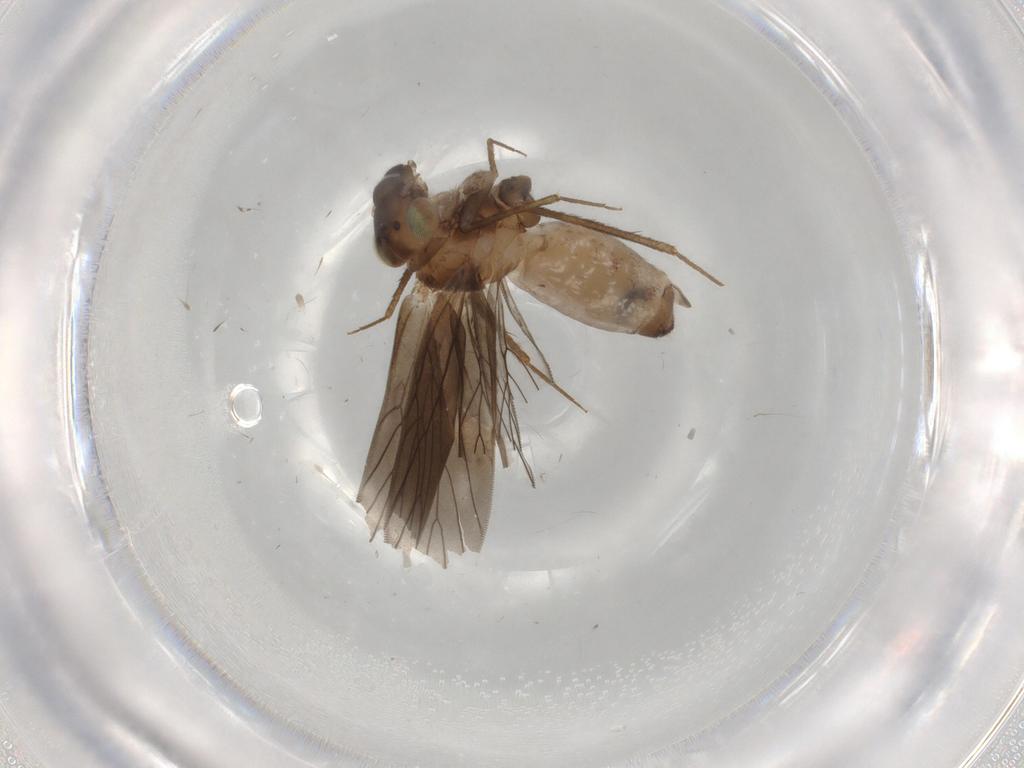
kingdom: Animalia
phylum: Arthropoda
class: Insecta
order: Psocodea
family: Lepidopsocidae
